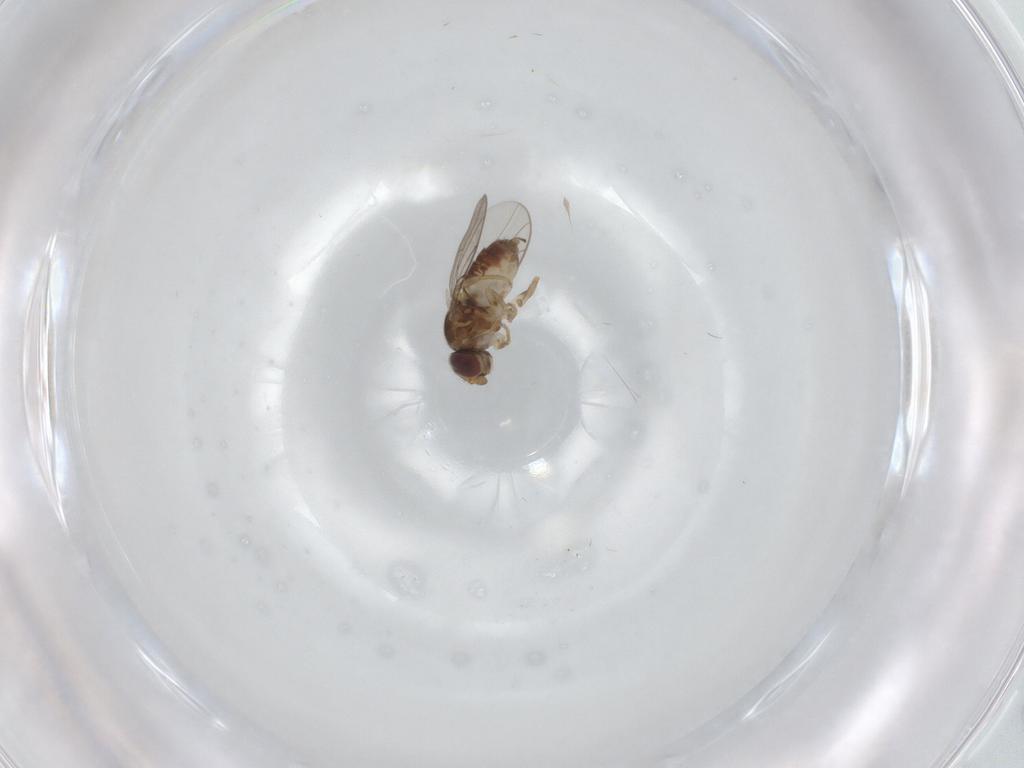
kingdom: Animalia
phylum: Arthropoda
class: Insecta
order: Diptera
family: Chloropidae
